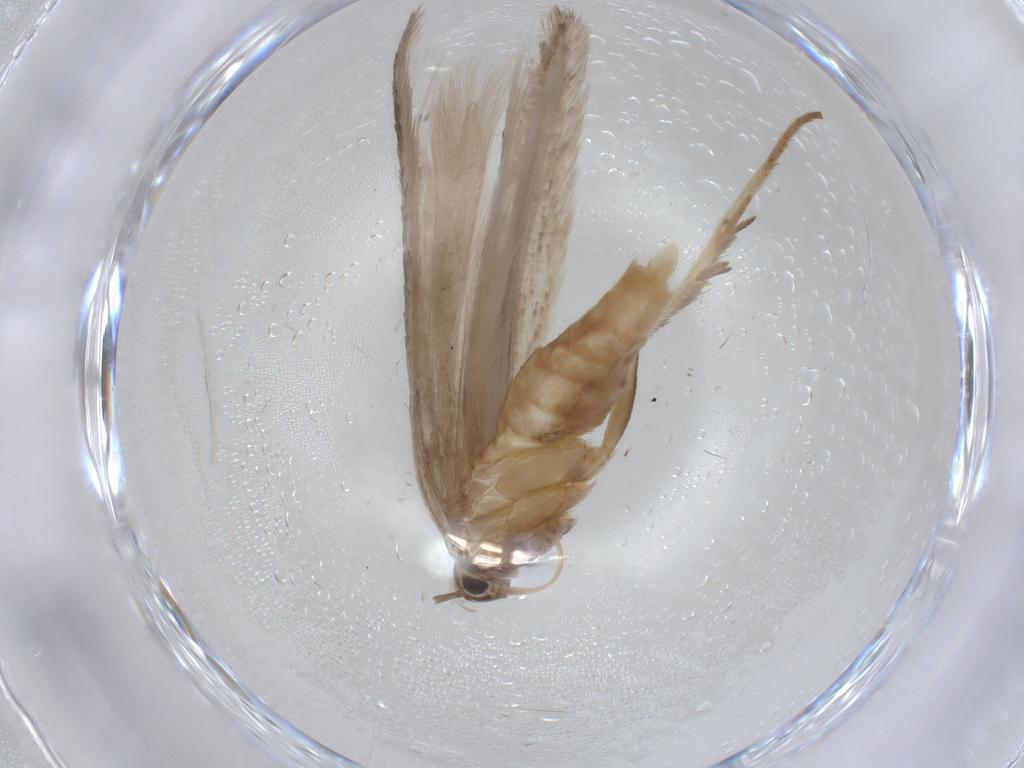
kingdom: Animalia
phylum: Arthropoda
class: Insecta
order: Lepidoptera
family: Gelechiidae
